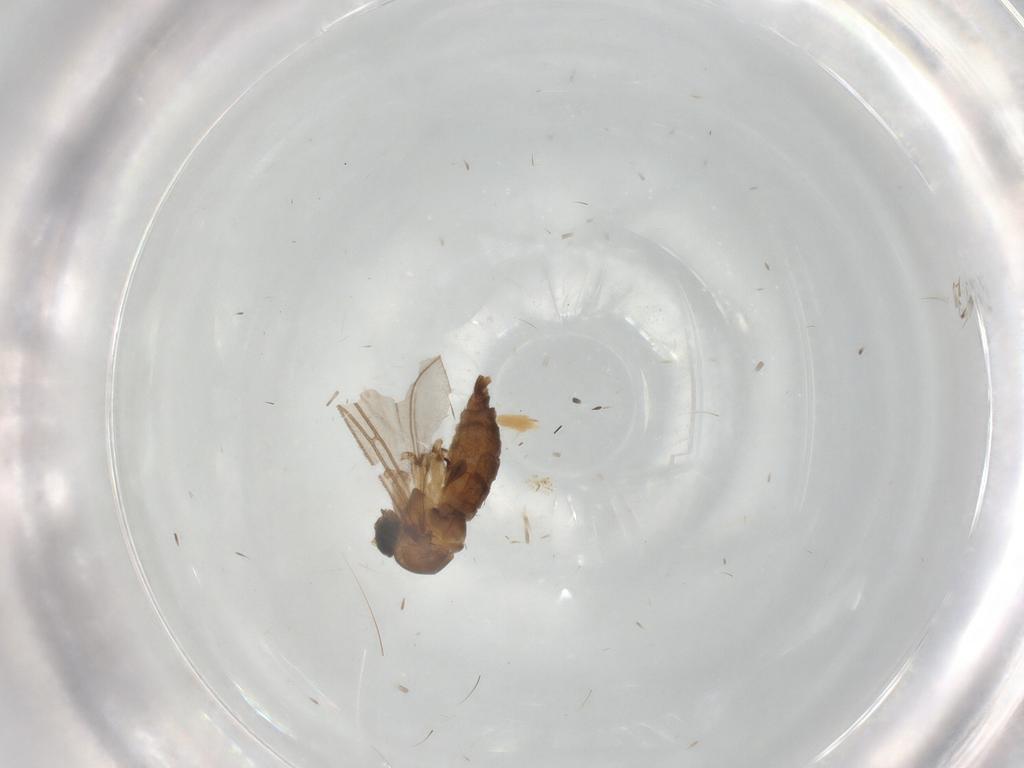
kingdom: Animalia
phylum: Arthropoda
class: Insecta
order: Diptera
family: Sciaridae
